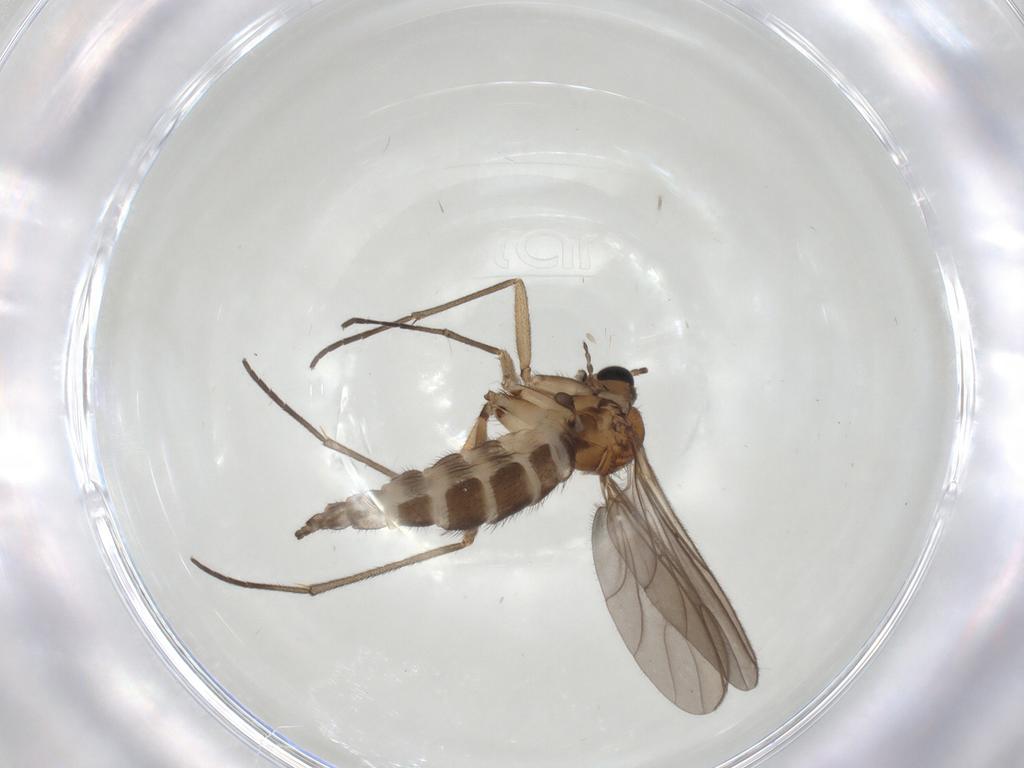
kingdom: Animalia
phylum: Arthropoda
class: Insecta
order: Diptera
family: Sciaridae
